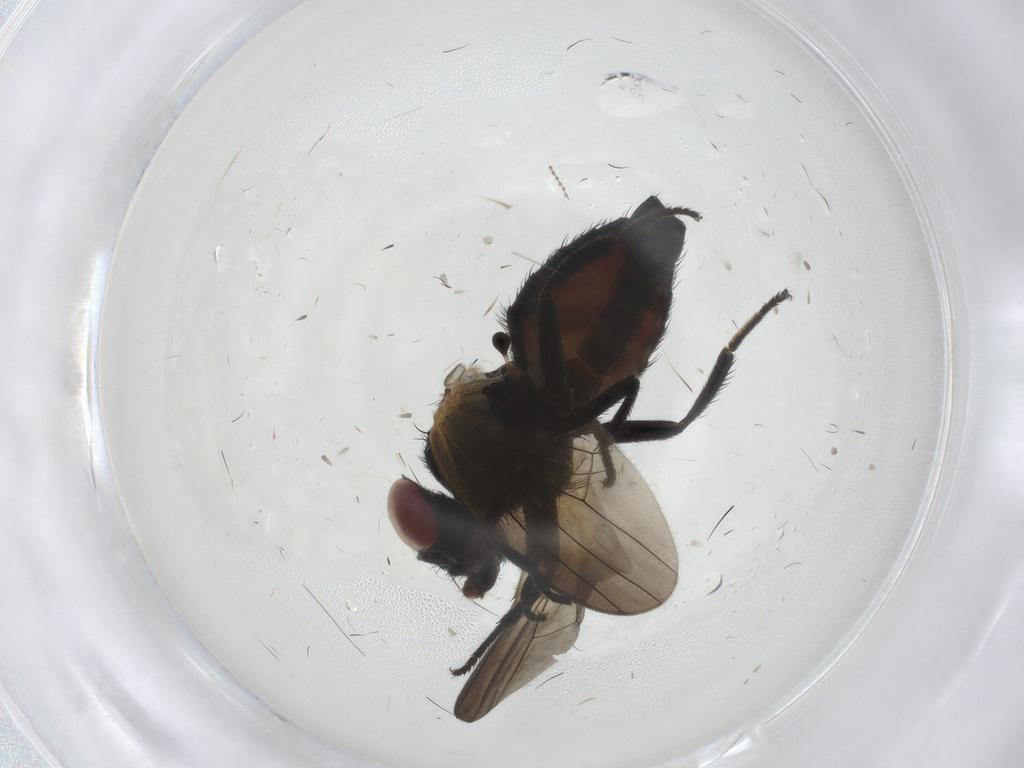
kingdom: Animalia
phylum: Arthropoda
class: Insecta
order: Diptera
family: Lonchaeidae
